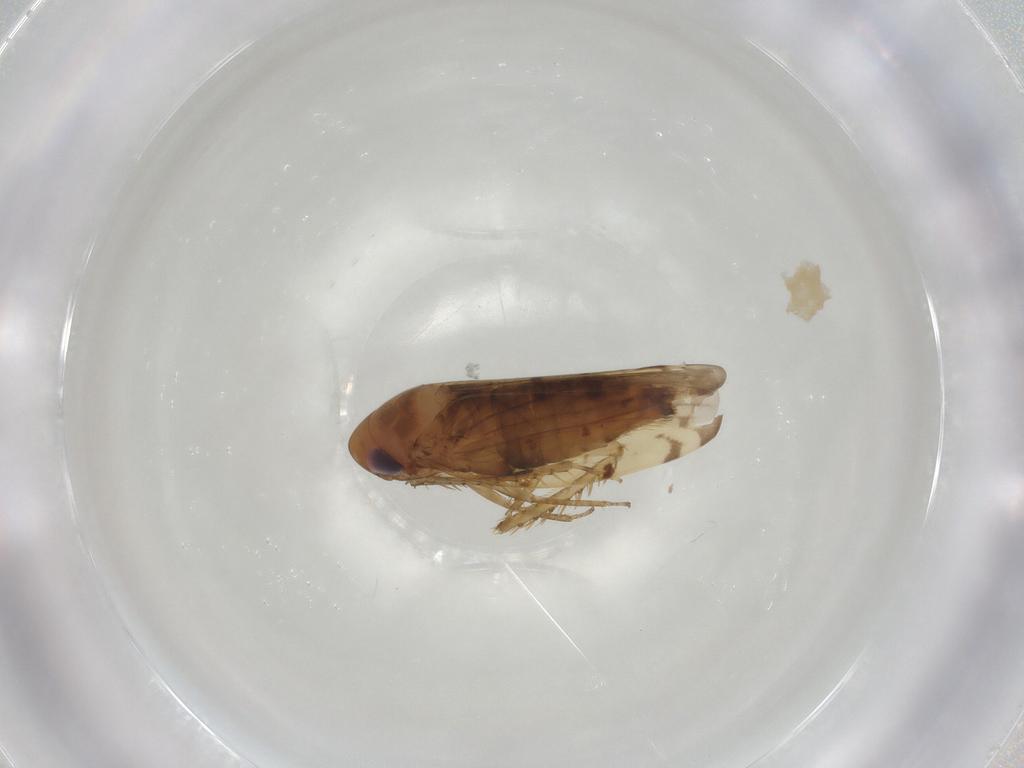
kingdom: Animalia
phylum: Arthropoda
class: Insecta
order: Hemiptera
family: Cicadellidae
